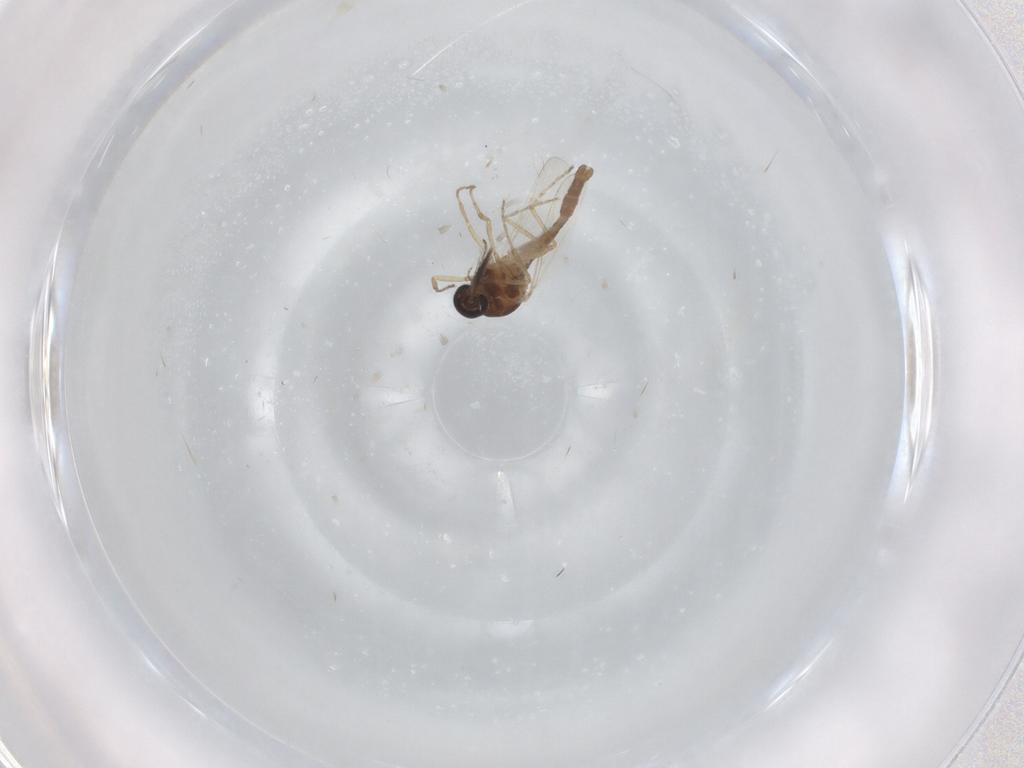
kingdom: Animalia
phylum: Arthropoda
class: Insecta
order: Diptera
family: Ceratopogonidae
